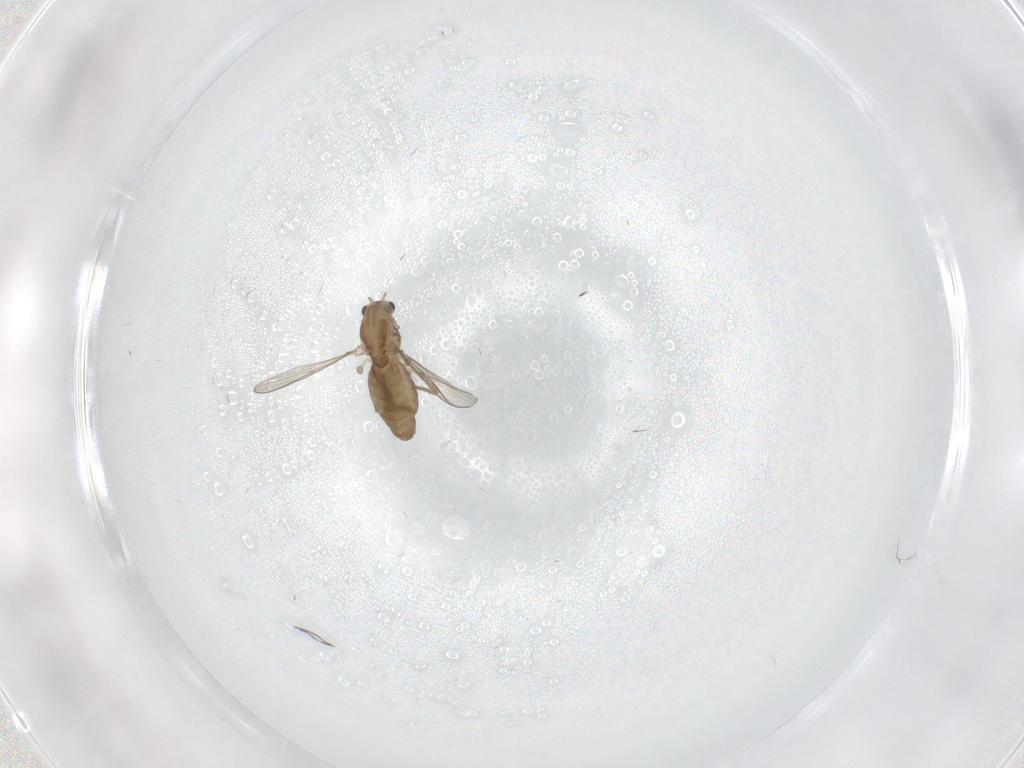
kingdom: Animalia
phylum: Arthropoda
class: Insecta
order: Diptera
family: Chironomidae
